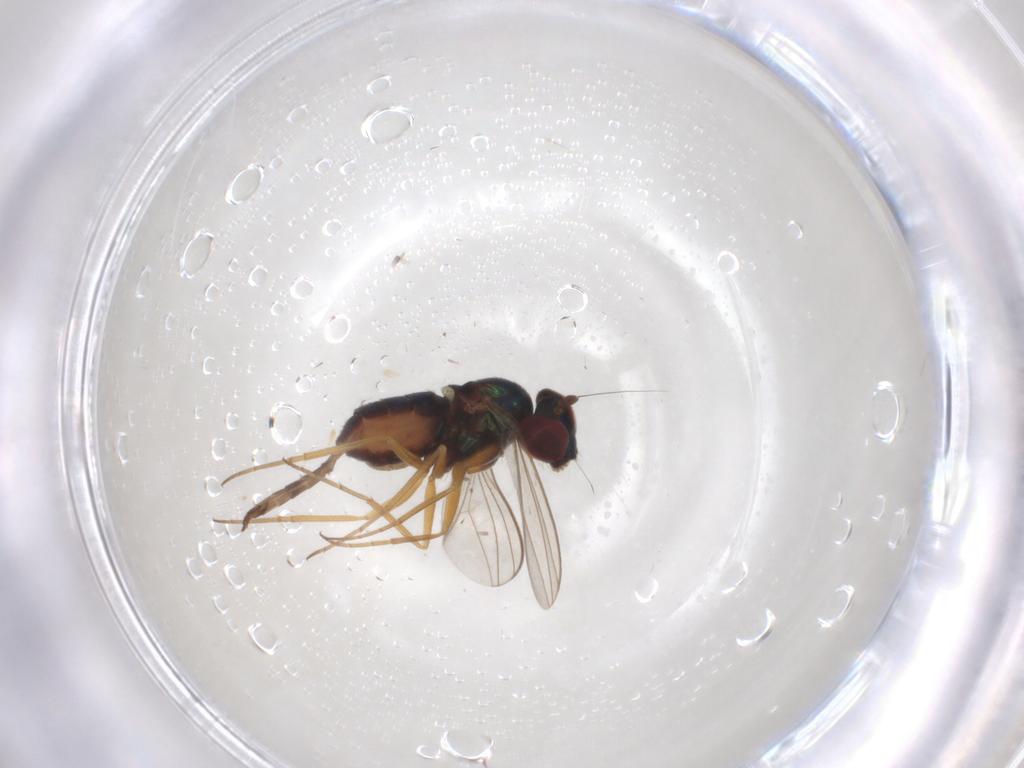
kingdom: Animalia
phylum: Arthropoda
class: Insecta
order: Diptera
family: Dolichopodidae
